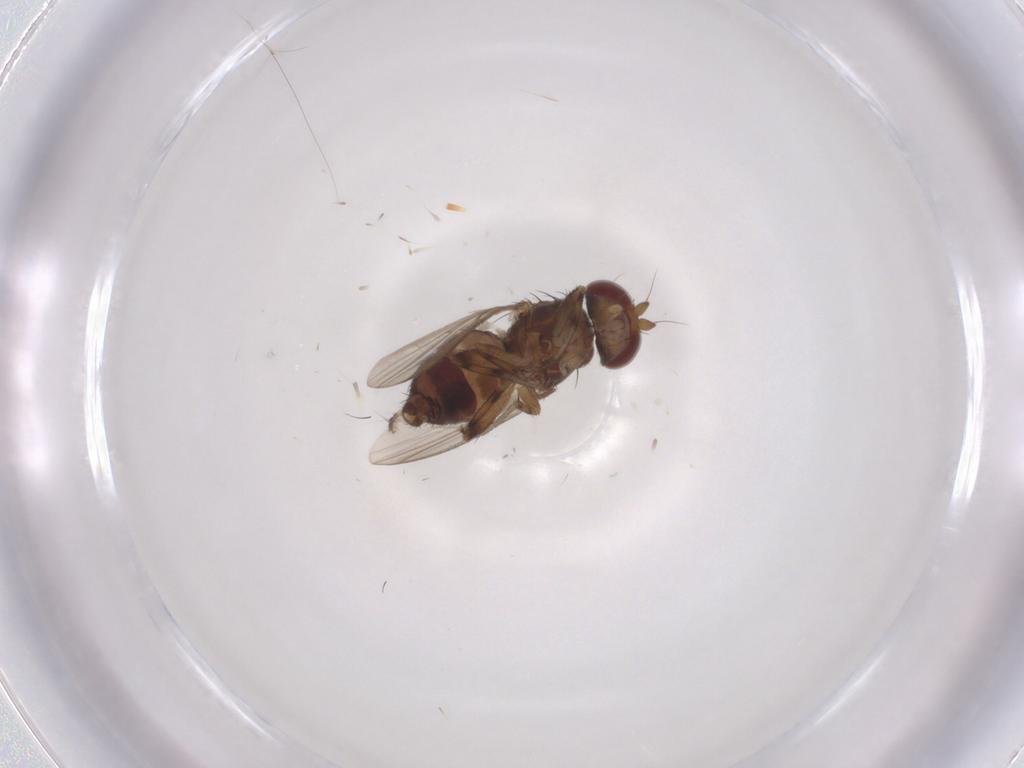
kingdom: Animalia
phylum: Arthropoda
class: Insecta
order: Diptera
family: Heleomyzidae
